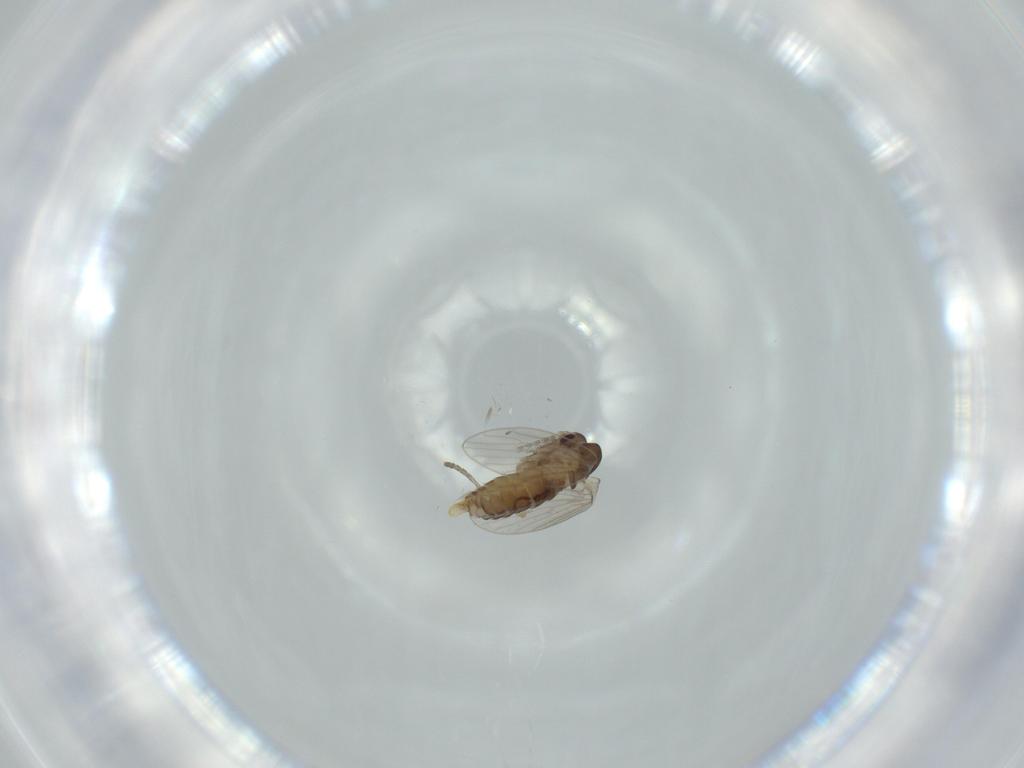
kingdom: Animalia
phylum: Arthropoda
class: Insecta
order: Diptera
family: Psychodidae
